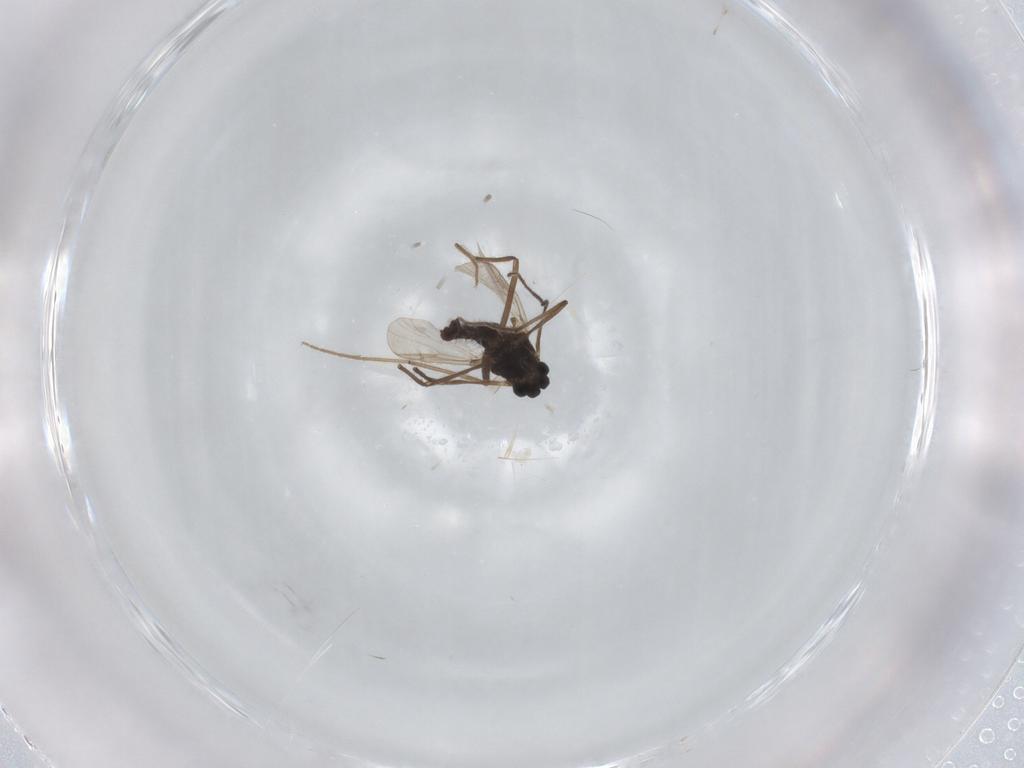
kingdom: Animalia
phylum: Arthropoda
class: Insecta
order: Diptera
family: Chironomidae
